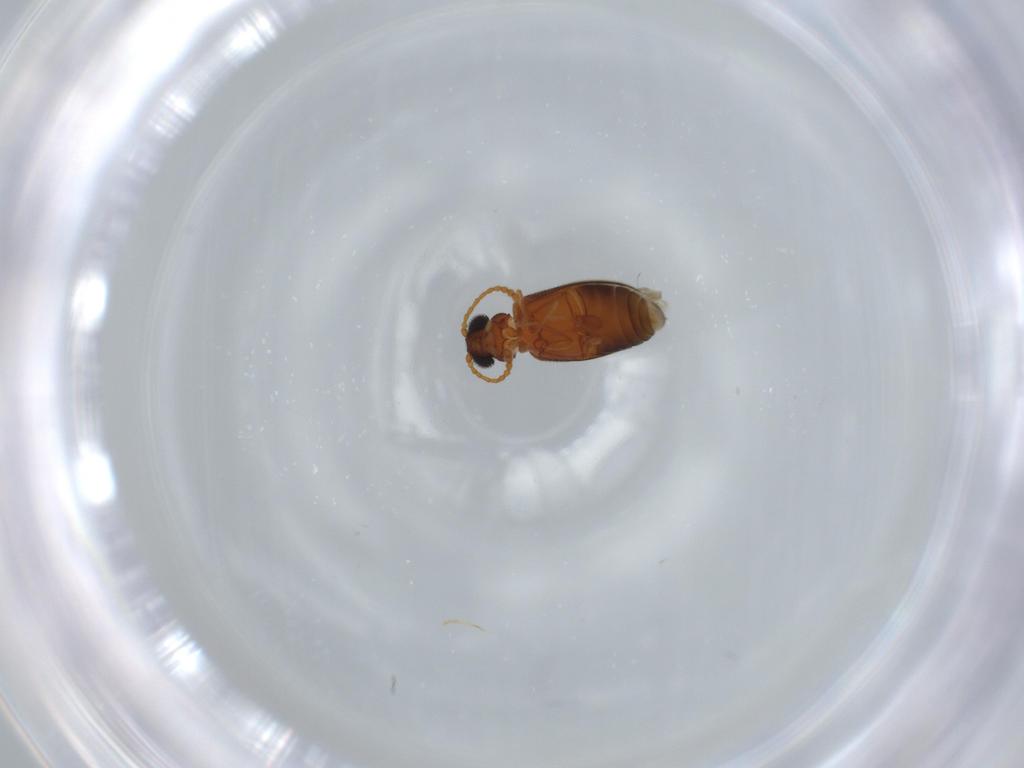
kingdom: Animalia
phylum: Arthropoda
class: Insecta
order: Coleoptera
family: Aderidae
